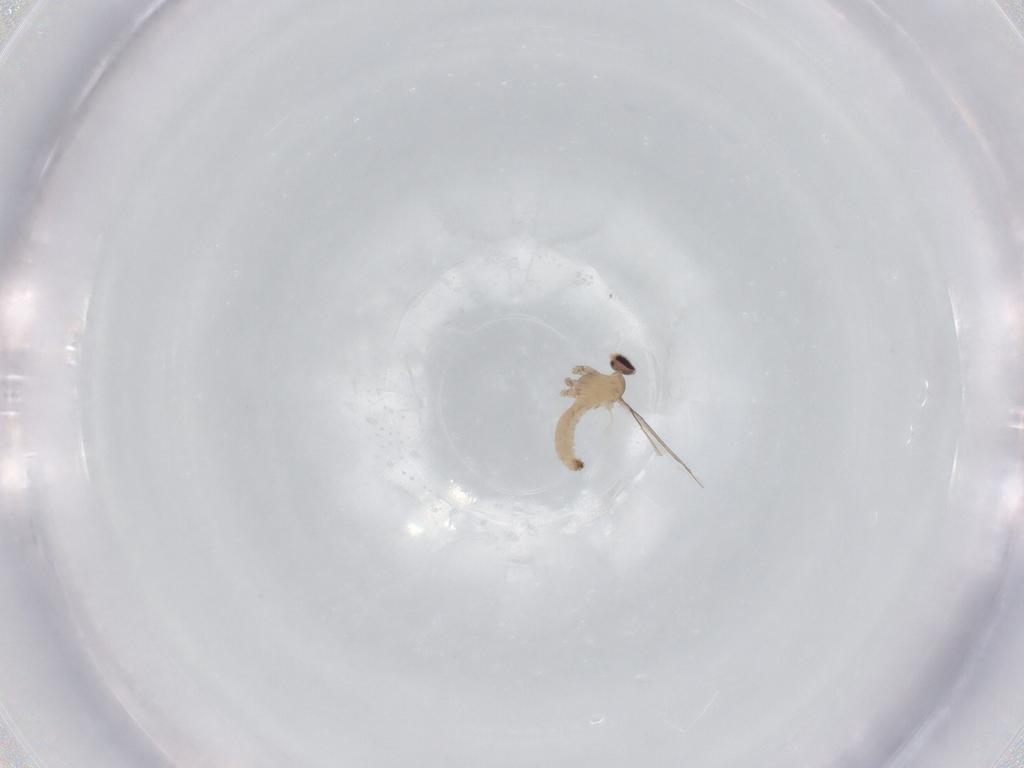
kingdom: Animalia
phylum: Arthropoda
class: Insecta
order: Diptera
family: Cecidomyiidae
